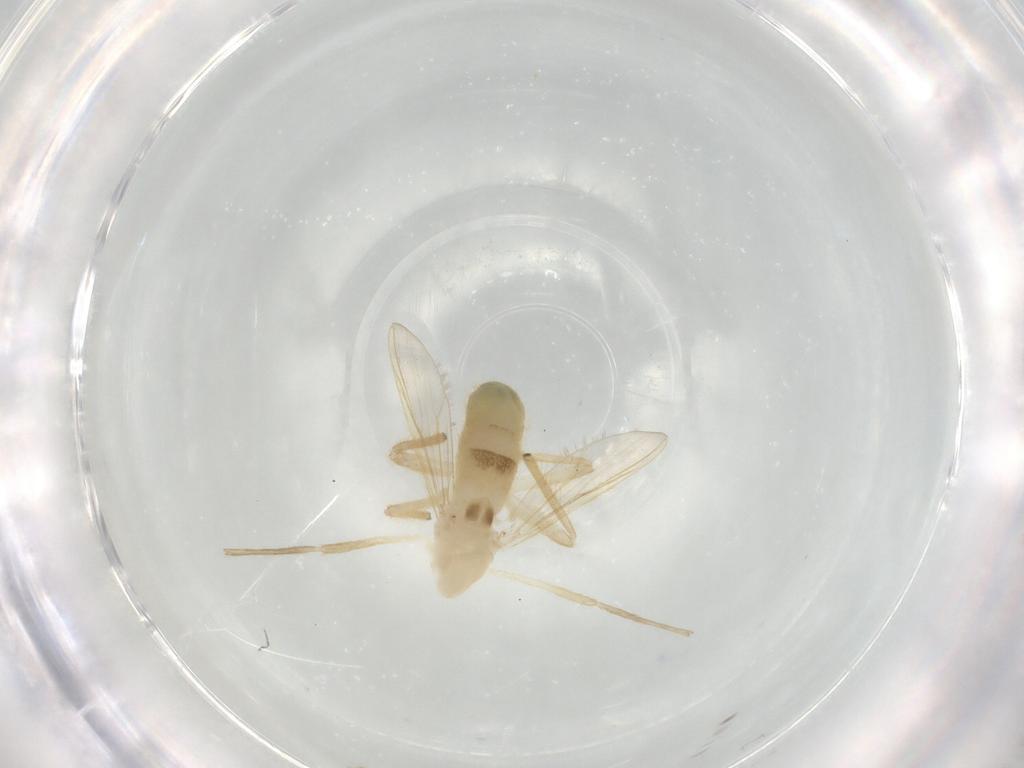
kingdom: Animalia
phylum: Arthropoda
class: Insecta
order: Diptera
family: Chironomidae
